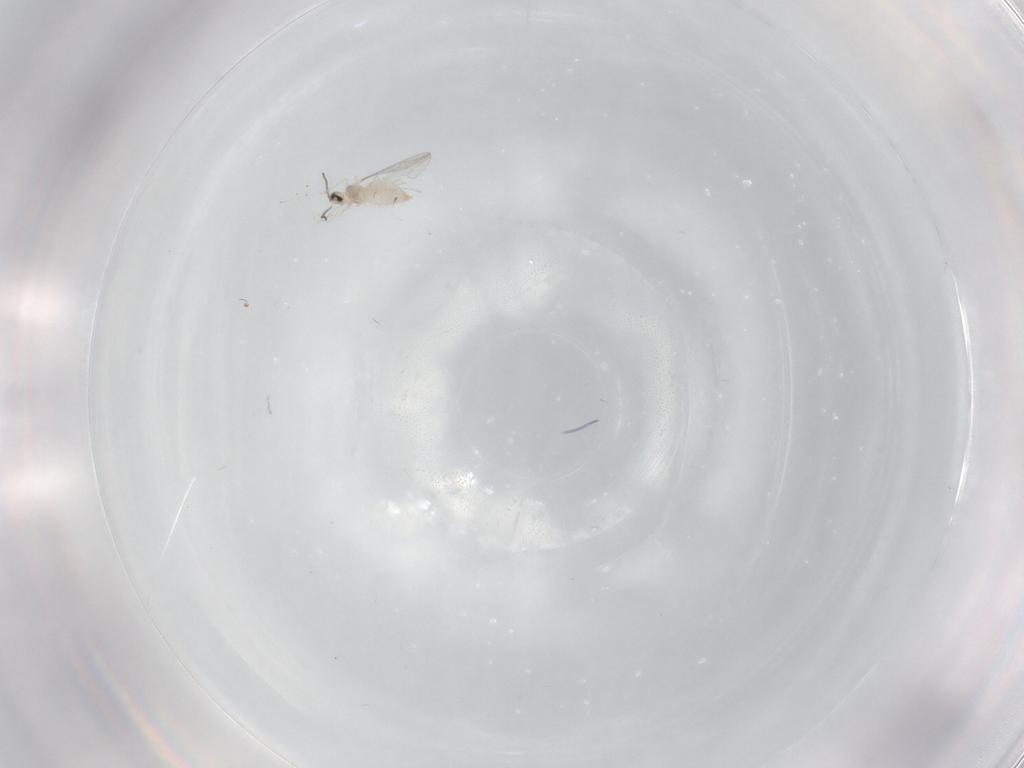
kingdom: Animalia
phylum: Arthropoda
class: Insecta
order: Diptera
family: Cecidomyiidae
